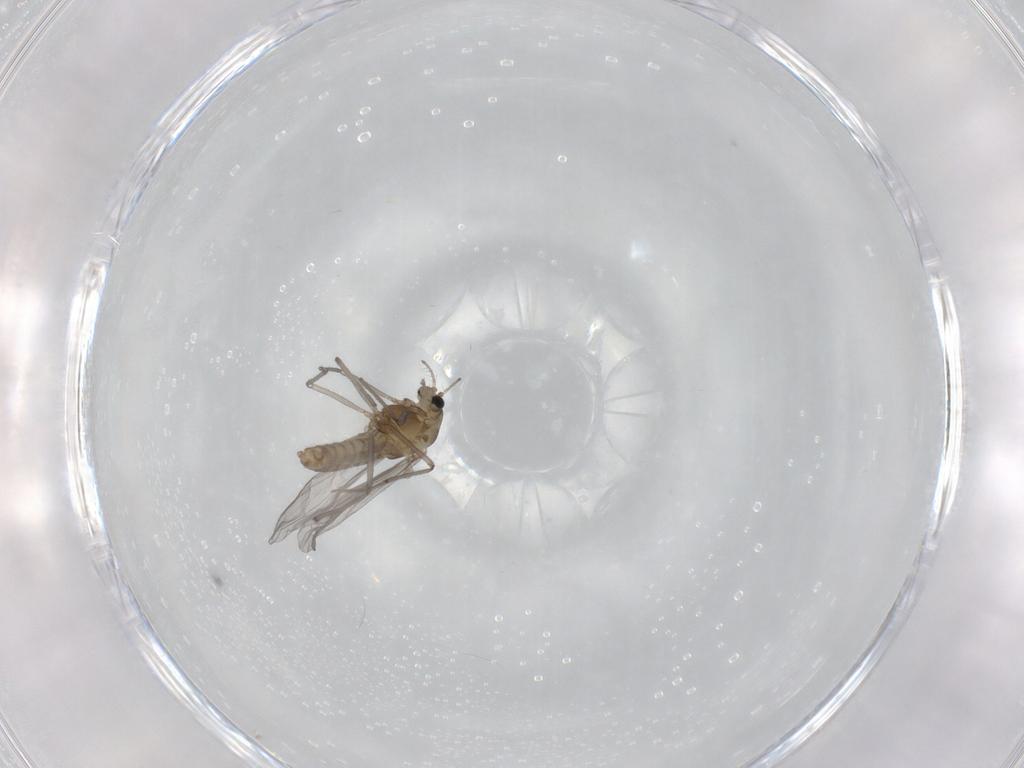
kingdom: Animalia
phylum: Arthropoda
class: Insecta
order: Diptera
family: Chironomidae
